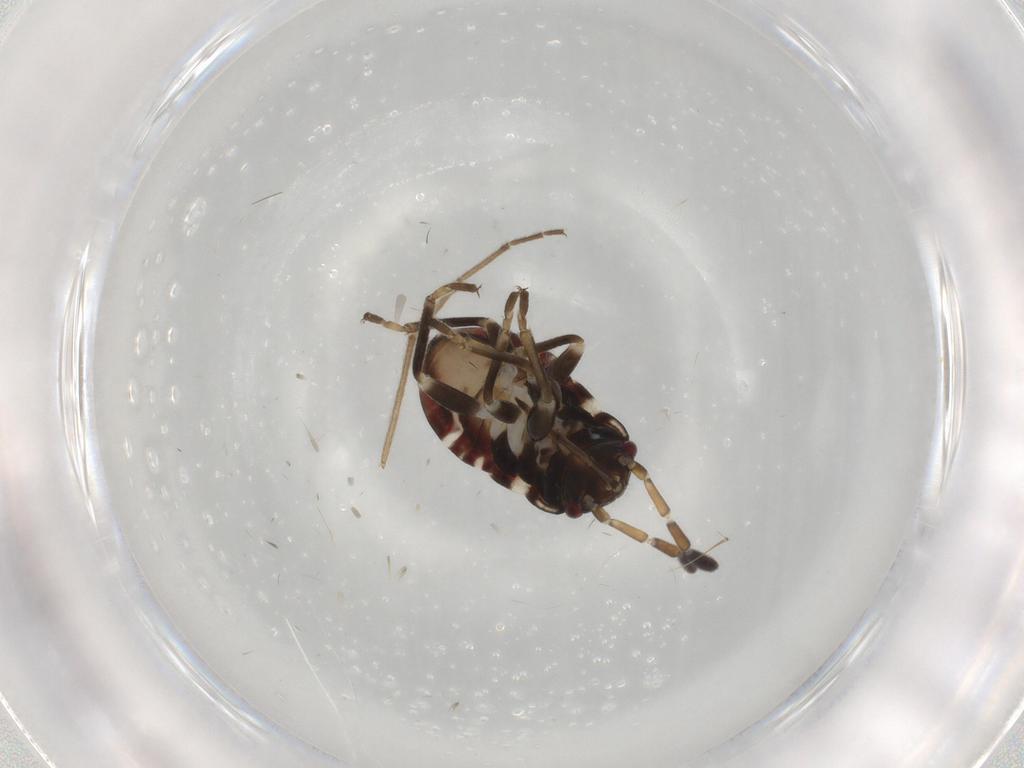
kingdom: Animalia
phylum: Arthropoda
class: Insecta
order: Hemiptera
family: Rhyparochromidae
